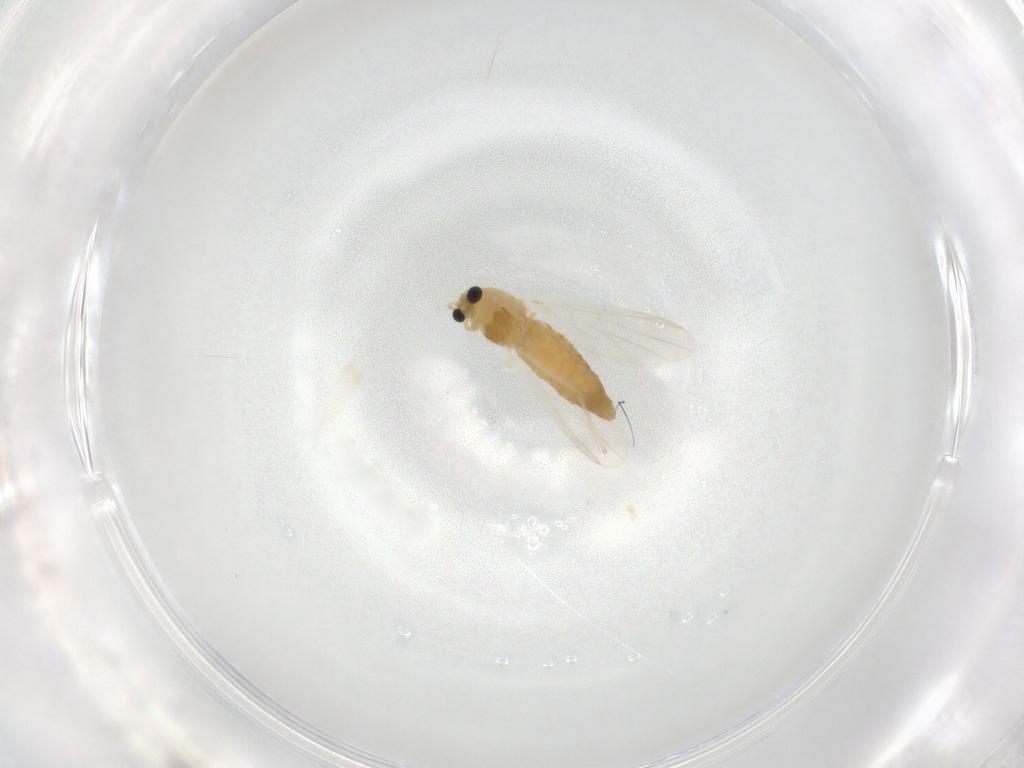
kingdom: Animalia
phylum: Arthropoda
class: Insecta
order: Diptera
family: Chironomidae
